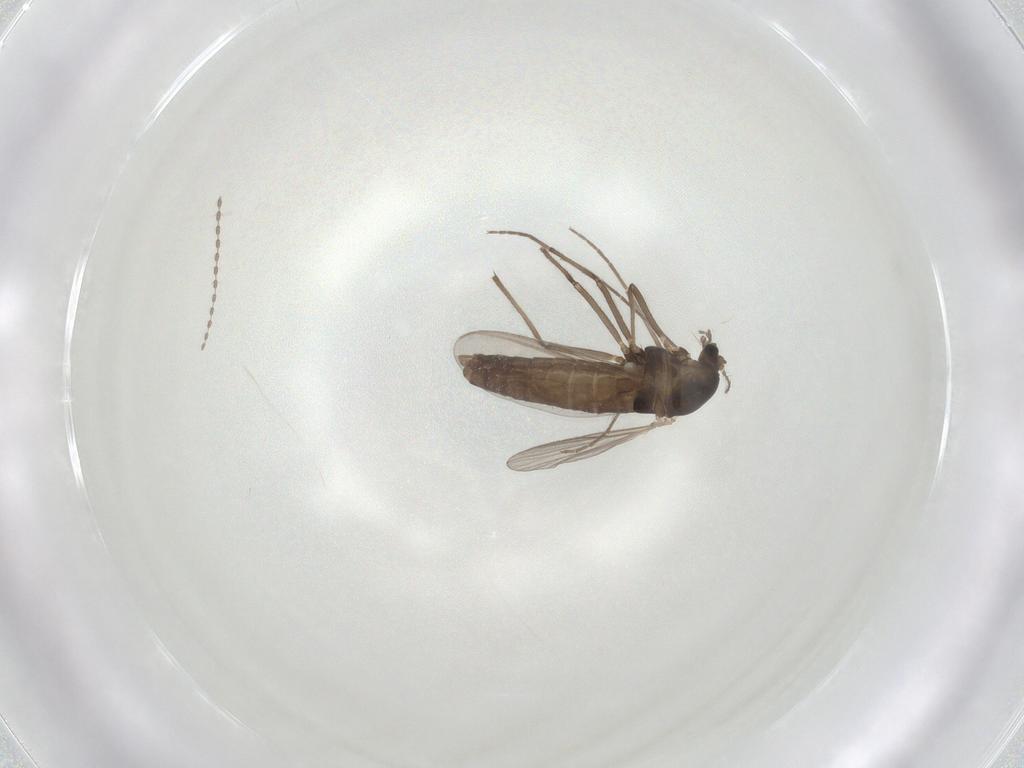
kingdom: Animalia
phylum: Arthropoda
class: Insecta
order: Diptera
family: Chironomidae
